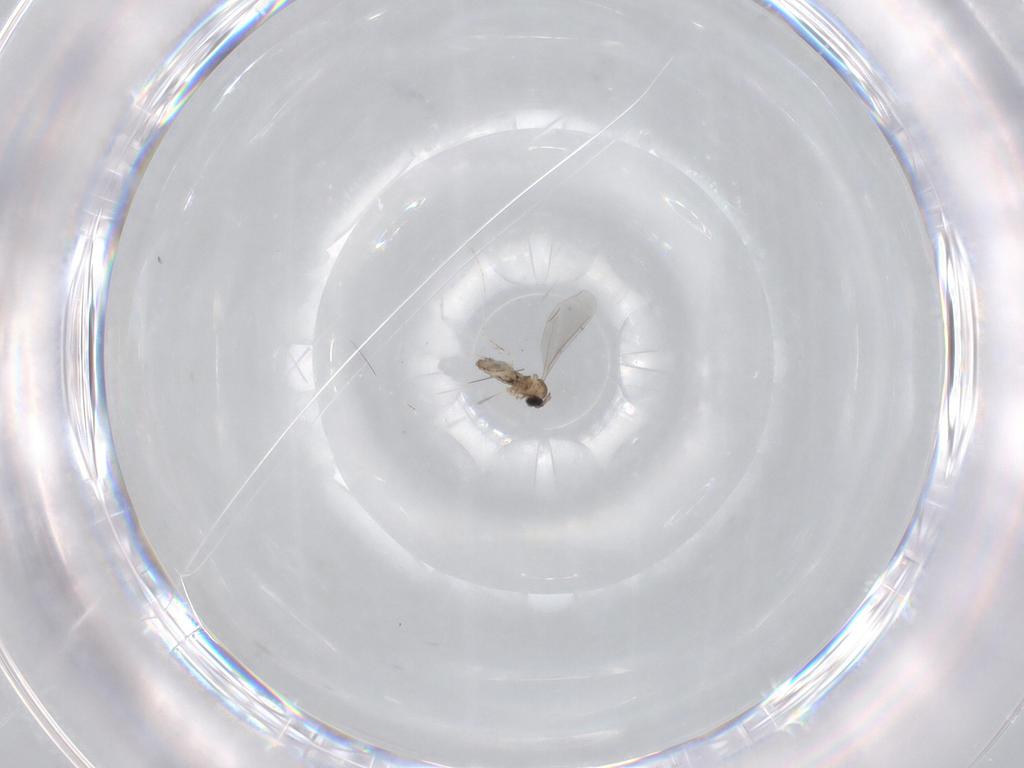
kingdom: Animalia
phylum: Arthropoda
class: Insecta
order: Diptera
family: Cecidomyiidae
